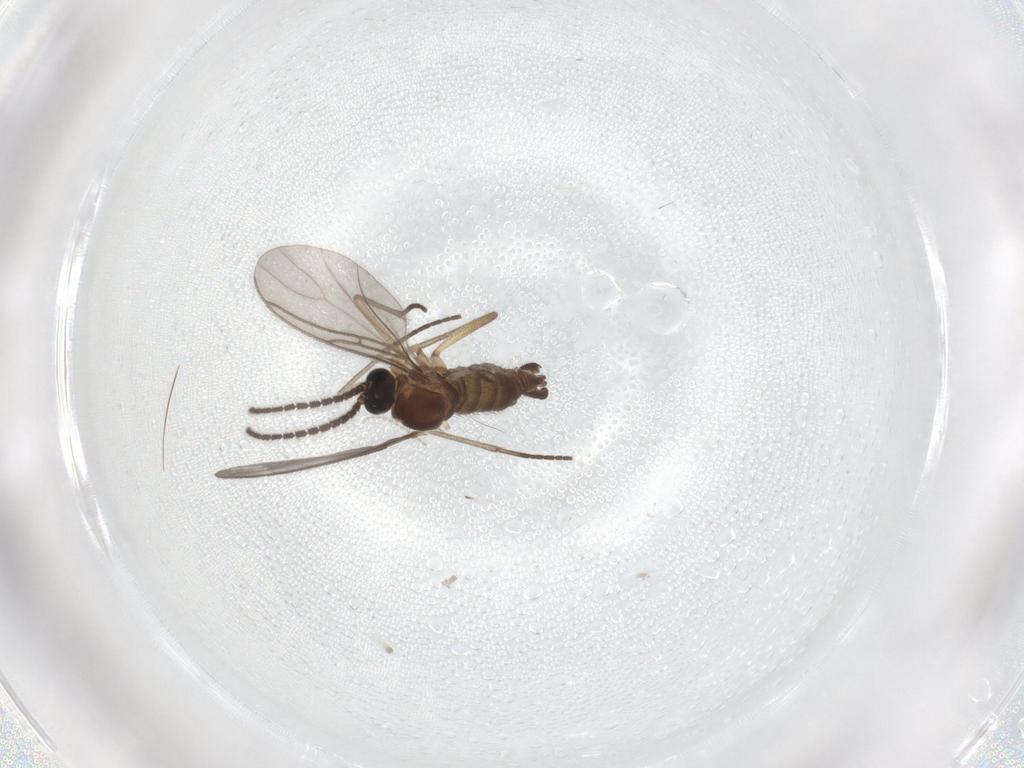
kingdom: Animalia
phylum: Arthropoda
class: Insecta
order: Diptera
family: Sciaridae
